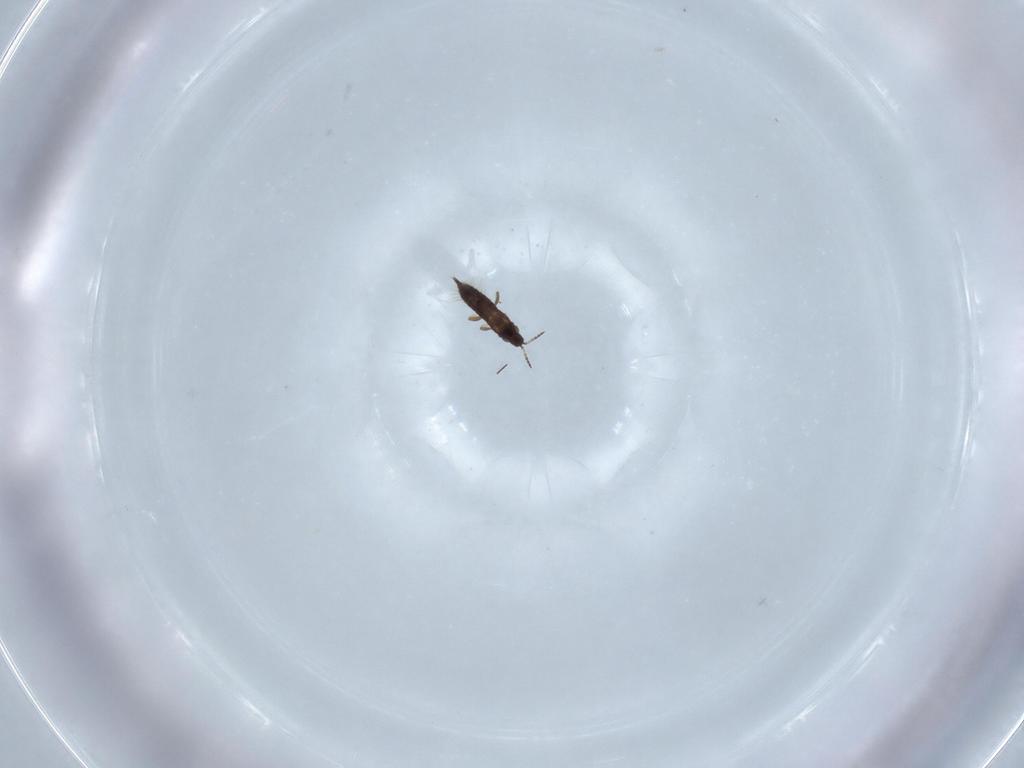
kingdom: Animalia
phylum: Arthropoda
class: Insecta
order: Thysanoptera
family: Phlaeothripidae
